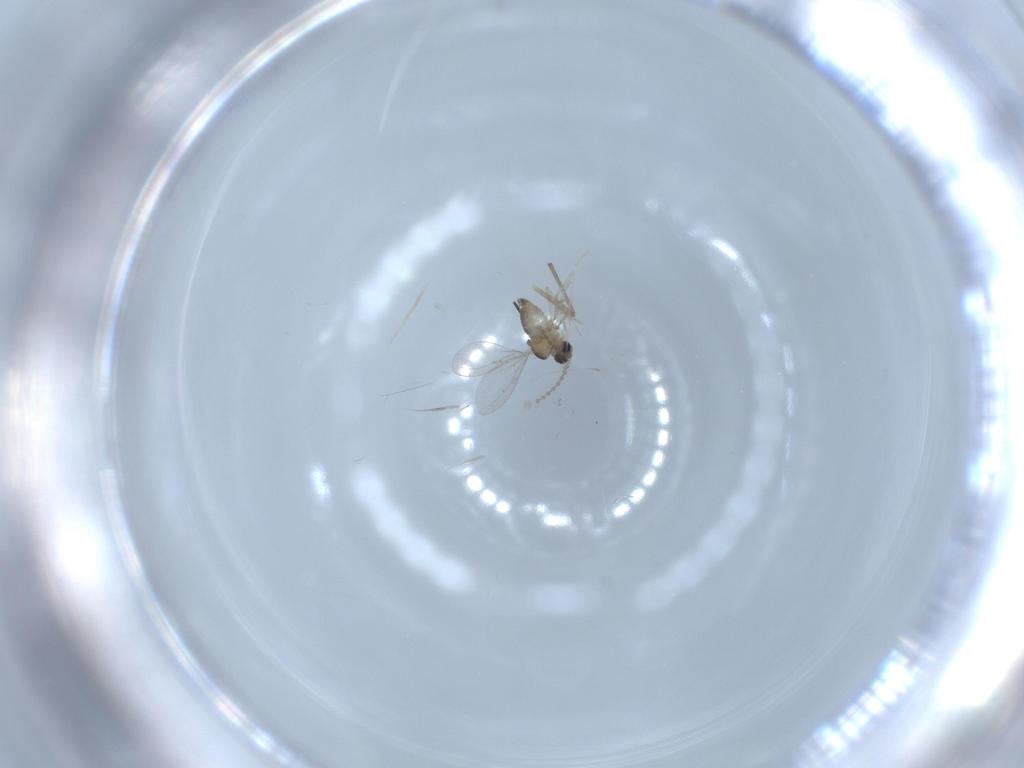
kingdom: Animalia
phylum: Arthropoda
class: Insecta
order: Diptera
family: Cecidomyiidae
